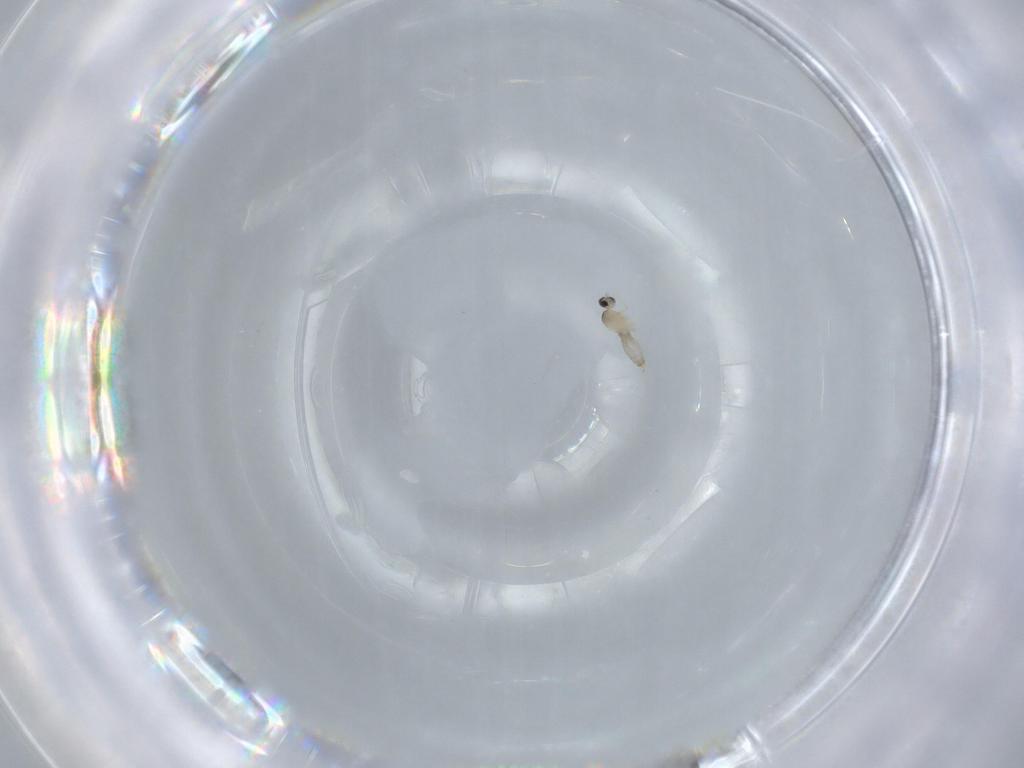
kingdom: Animalia
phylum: Arthropoda
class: Insecta
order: Diptera
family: Cecidomyiidae
